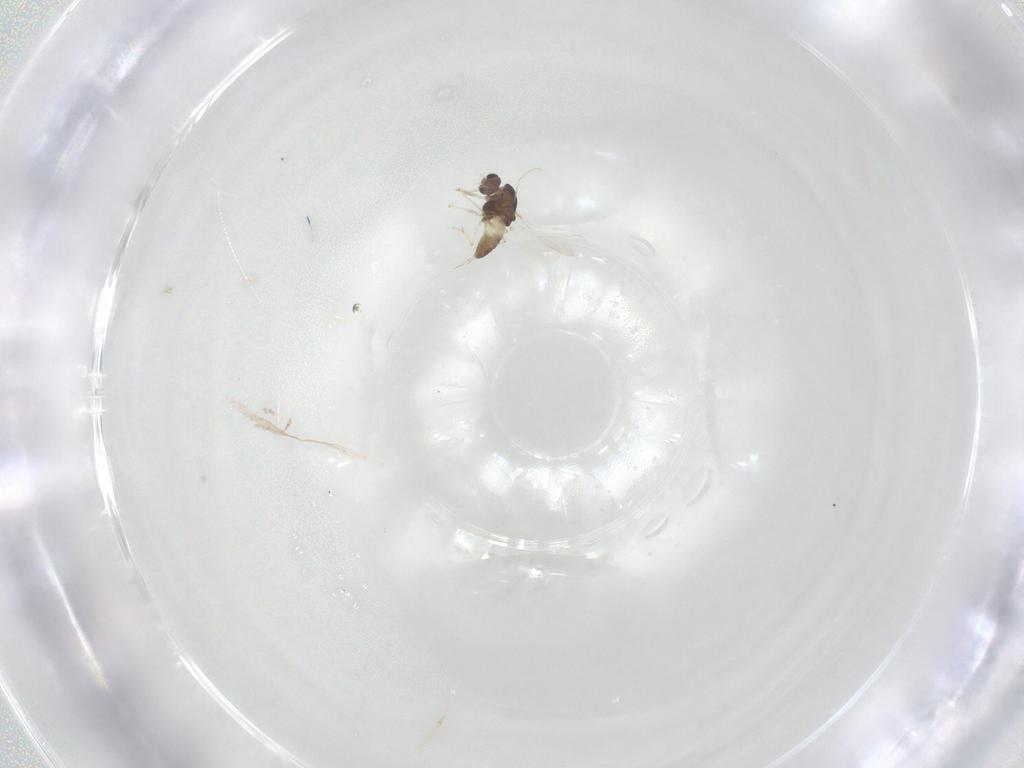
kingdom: Animalia
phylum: Arthropoda
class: Insecta
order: Diptera
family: Chironomidae
